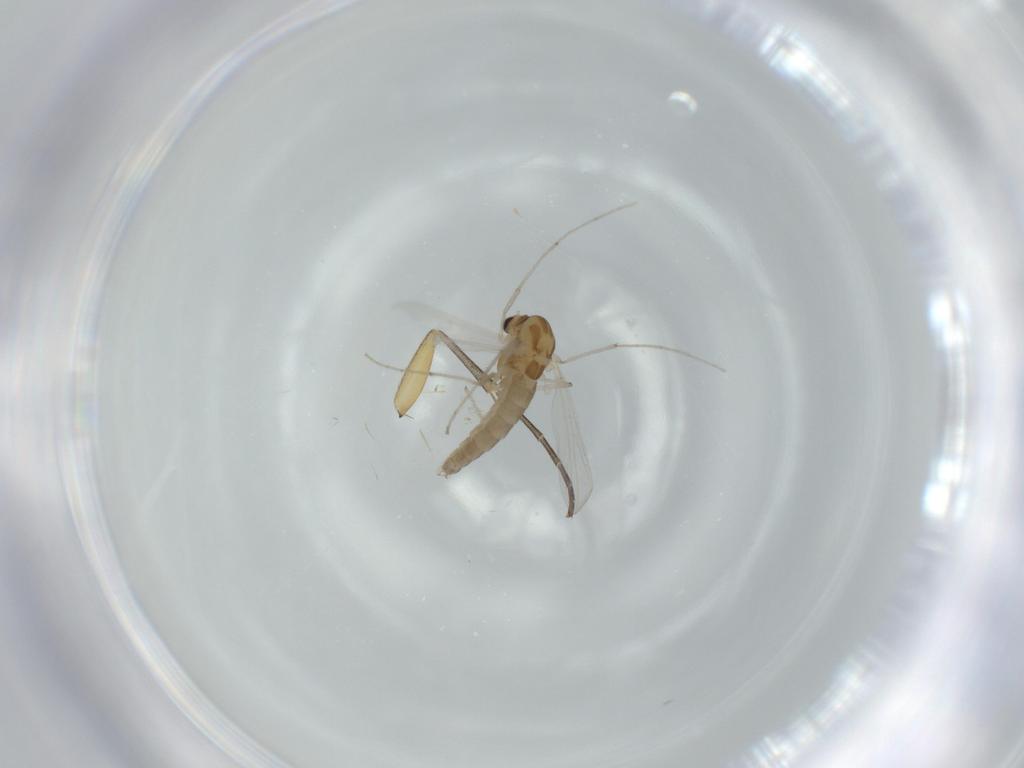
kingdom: Animalia
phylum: Arthropoda
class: Insecta
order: Diptera
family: Chironomidae
